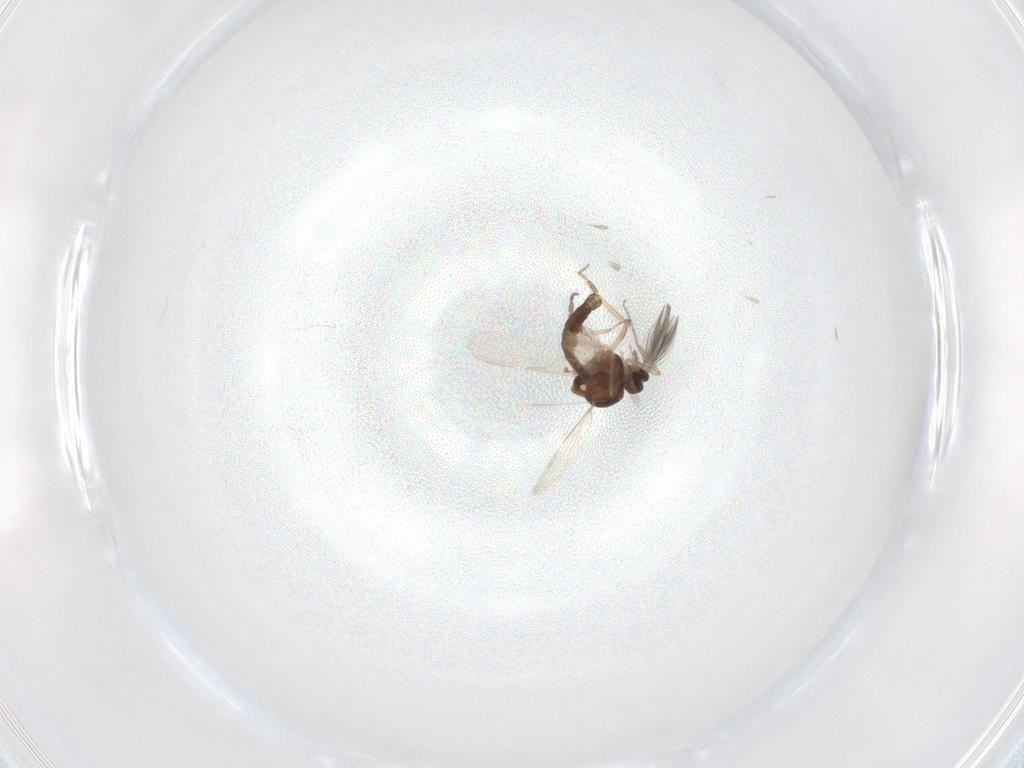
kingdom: Animalia
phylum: Arthropoda
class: Insecta
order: Diptera
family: Ceratopogonidae
